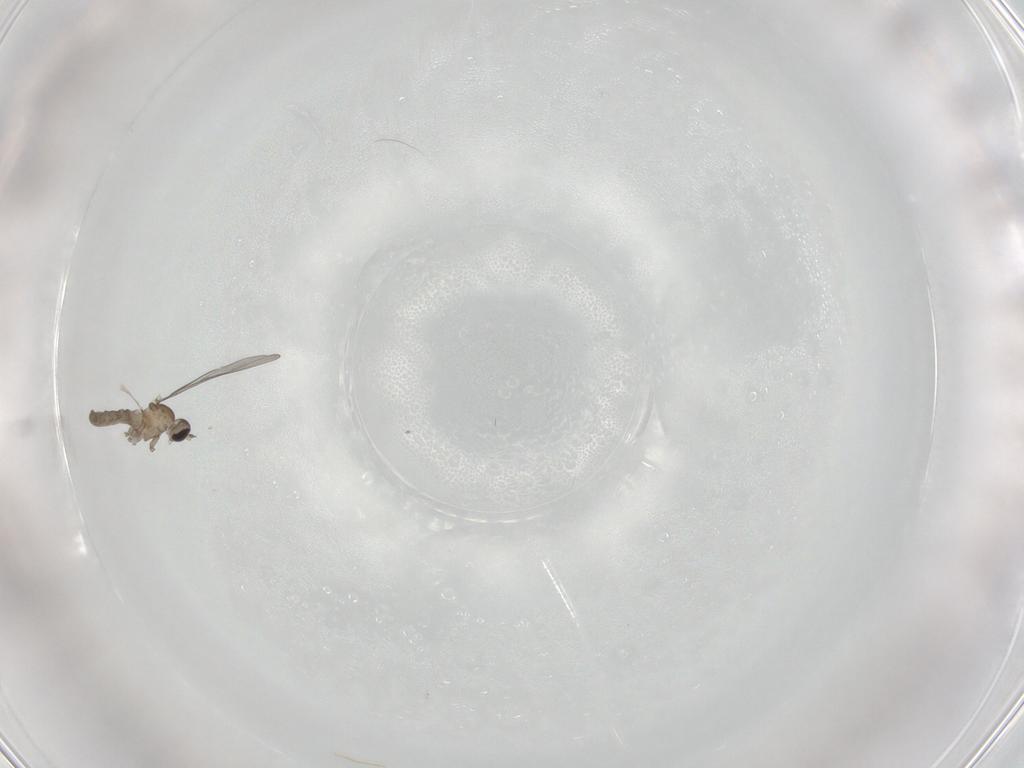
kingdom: Animalia
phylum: Arthropoda
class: Insecta
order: Diptera
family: Cecidomyiidae
